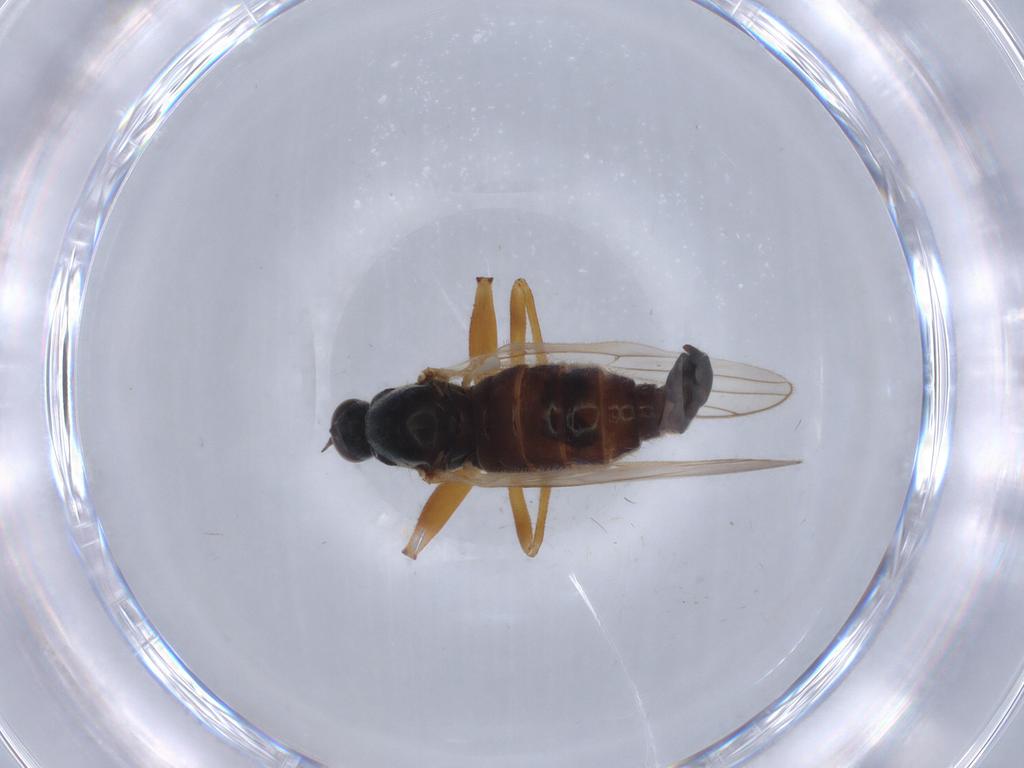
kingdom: Animalia
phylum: Arthropoda
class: Insecta
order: Diptera
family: Hybotidae
